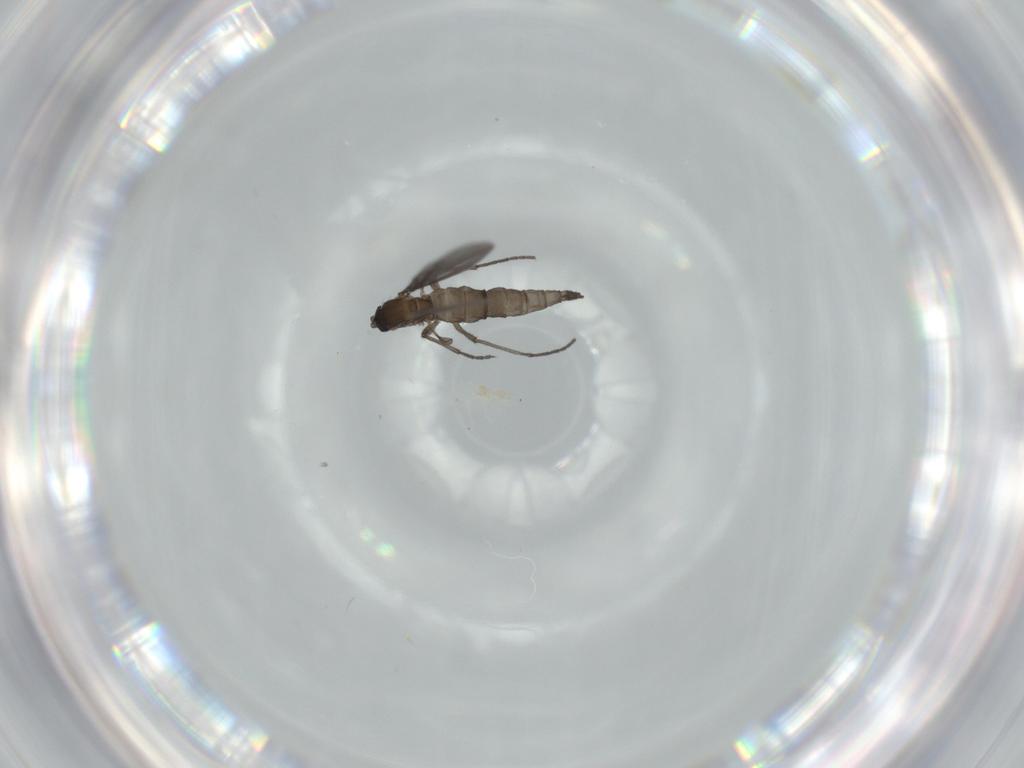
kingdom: Animalia
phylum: Arthropoda
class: Insecta
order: Diptera
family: Sciaridae
